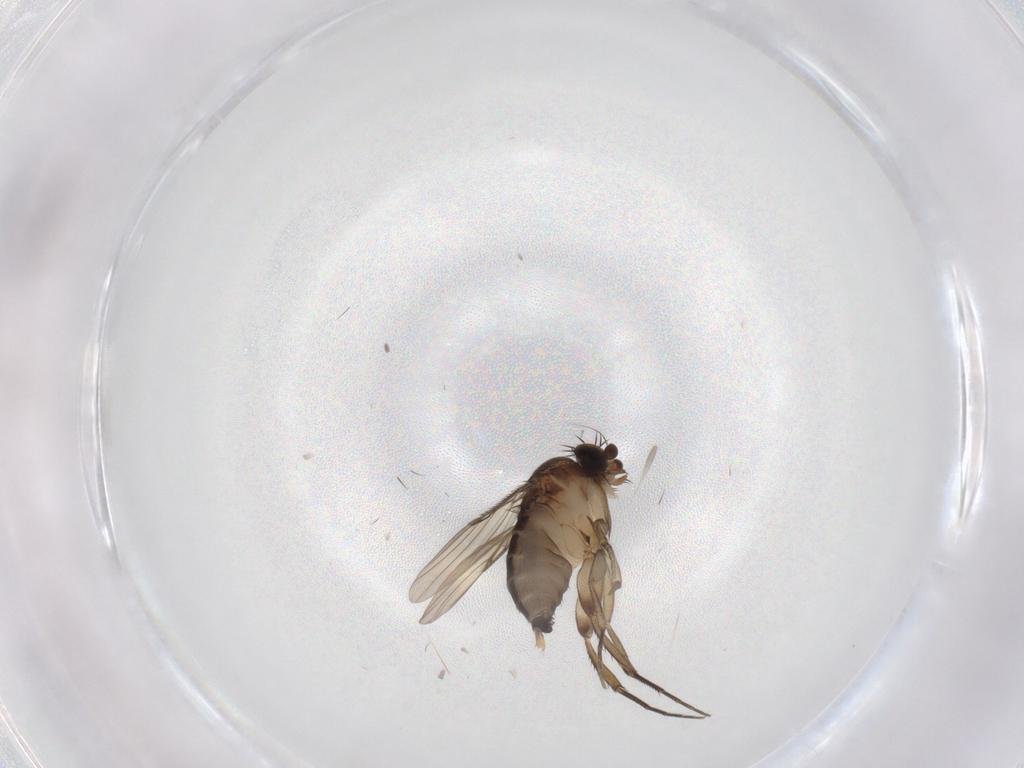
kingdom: Animalia
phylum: Arthropoda
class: Insecta
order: Diptera
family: Phoridae
